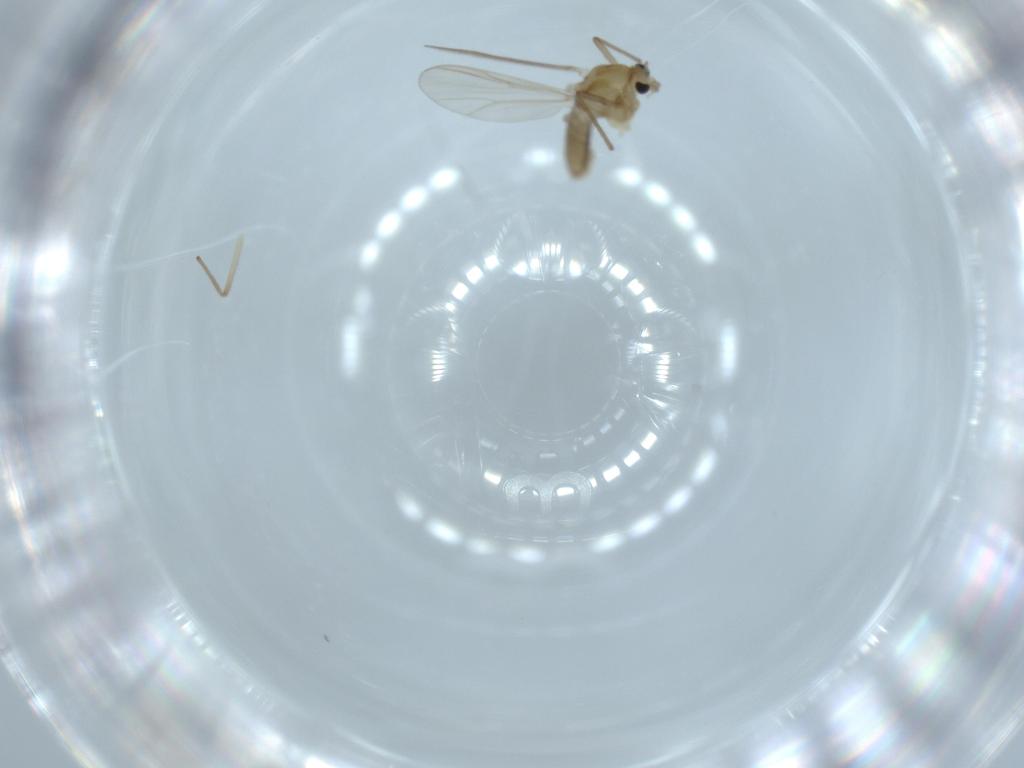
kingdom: Animalia
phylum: Arthropoda
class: Insecta
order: Diptera
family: Chironomidae
